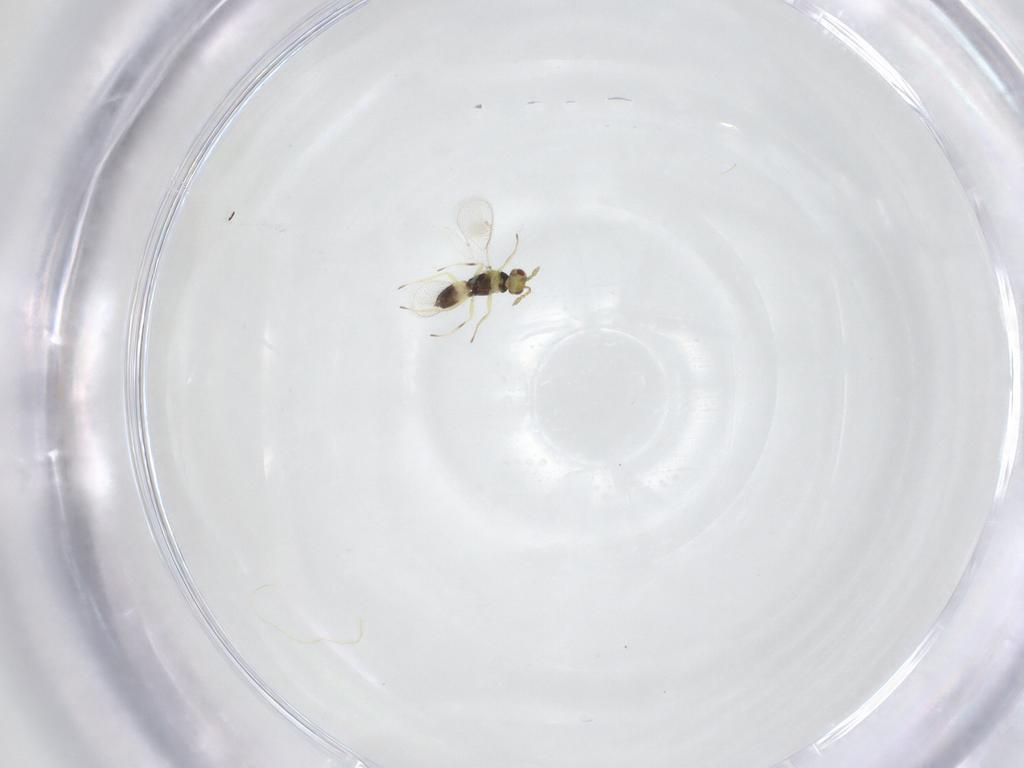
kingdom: Animalia
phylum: Arthropoda
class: Insecta
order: Hymenoptera
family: Eulophidae
